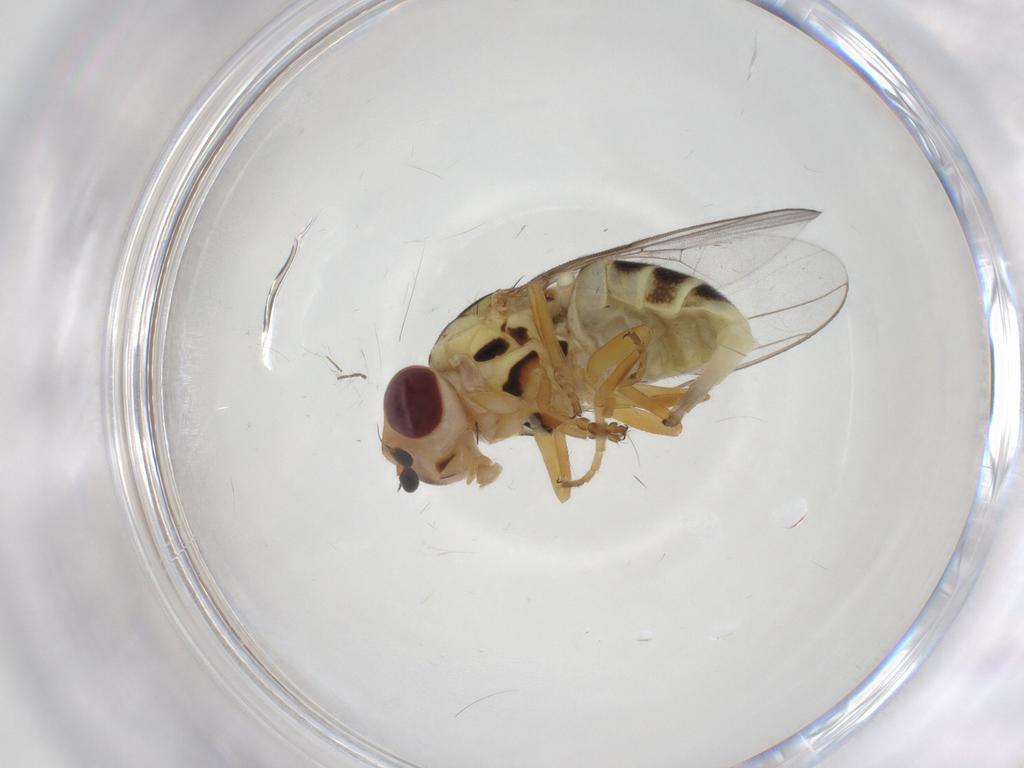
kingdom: Animalia
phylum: Arthropoda
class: Insecta
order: Diptera
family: Chloropidae
